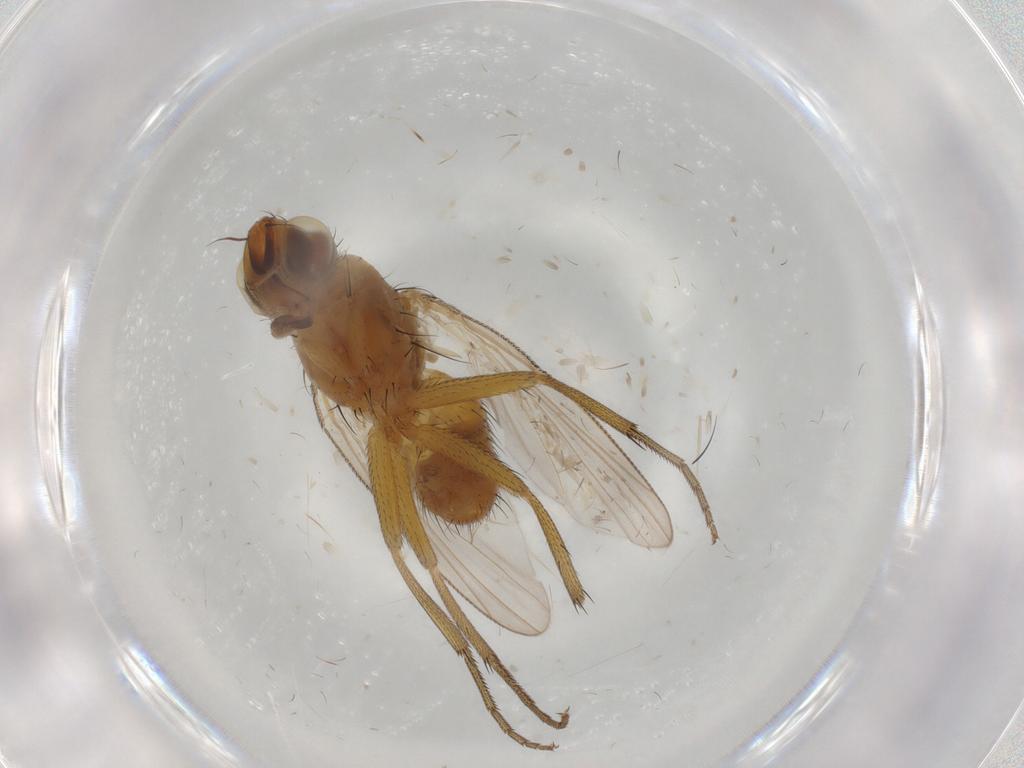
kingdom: Animalia
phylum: Arthropoda
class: Insecta
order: Diptera
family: Muscidae
